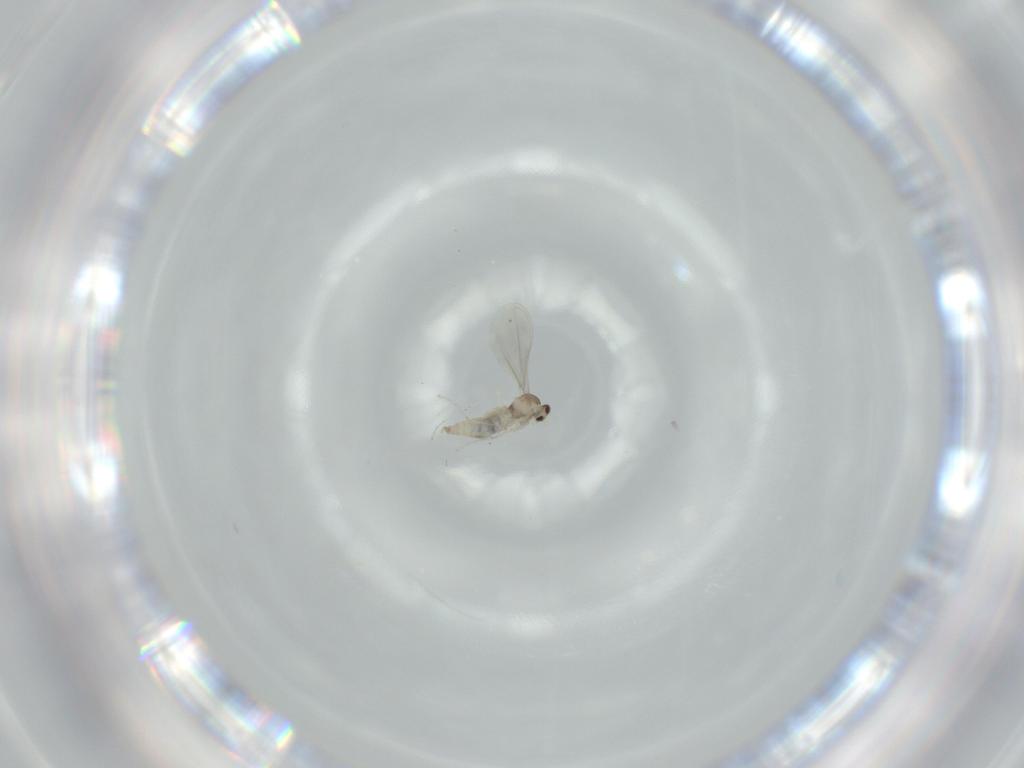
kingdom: Animalia
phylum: Arthropoda
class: Insecta
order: Diptera
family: Cecidomyiidae
